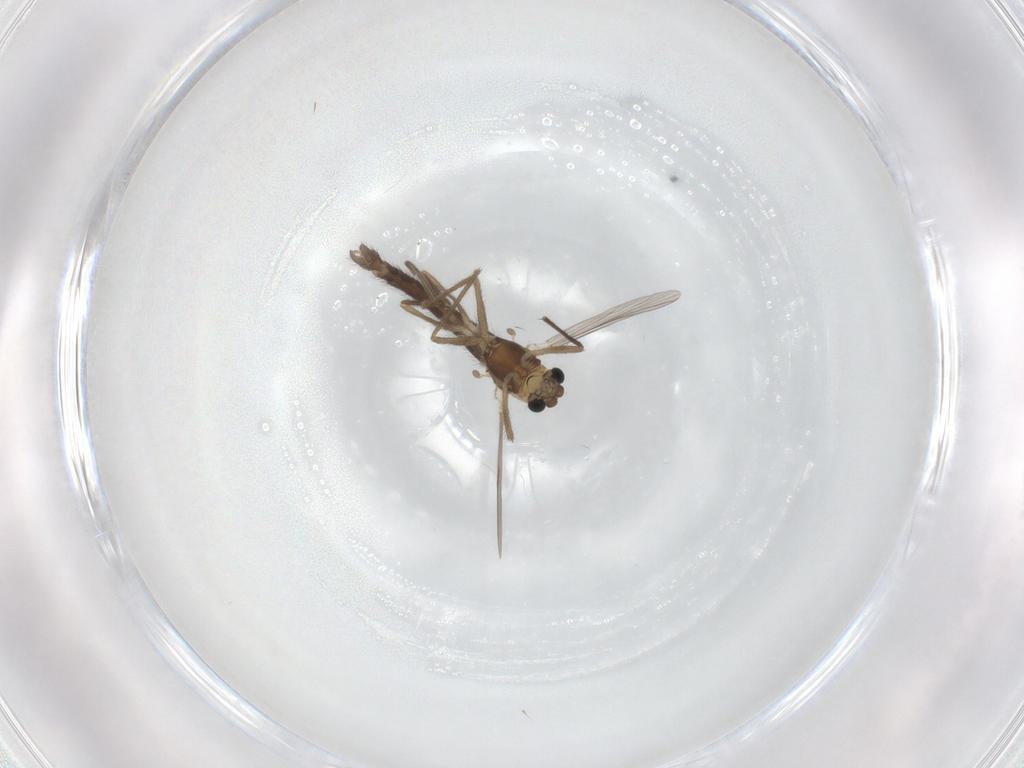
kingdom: Animalia
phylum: Arthropoda
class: Insecta
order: Diptera
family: Chironomidae
